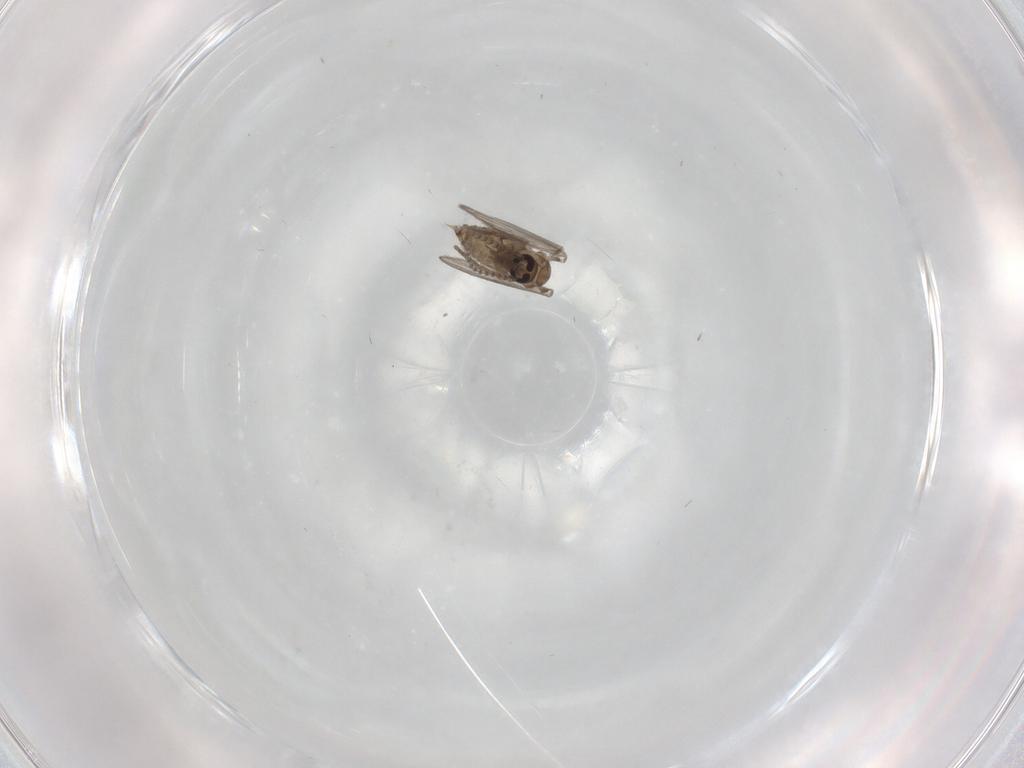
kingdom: Animalia
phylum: Arthropoda
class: Insecta
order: Diptera
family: Psychodidae
